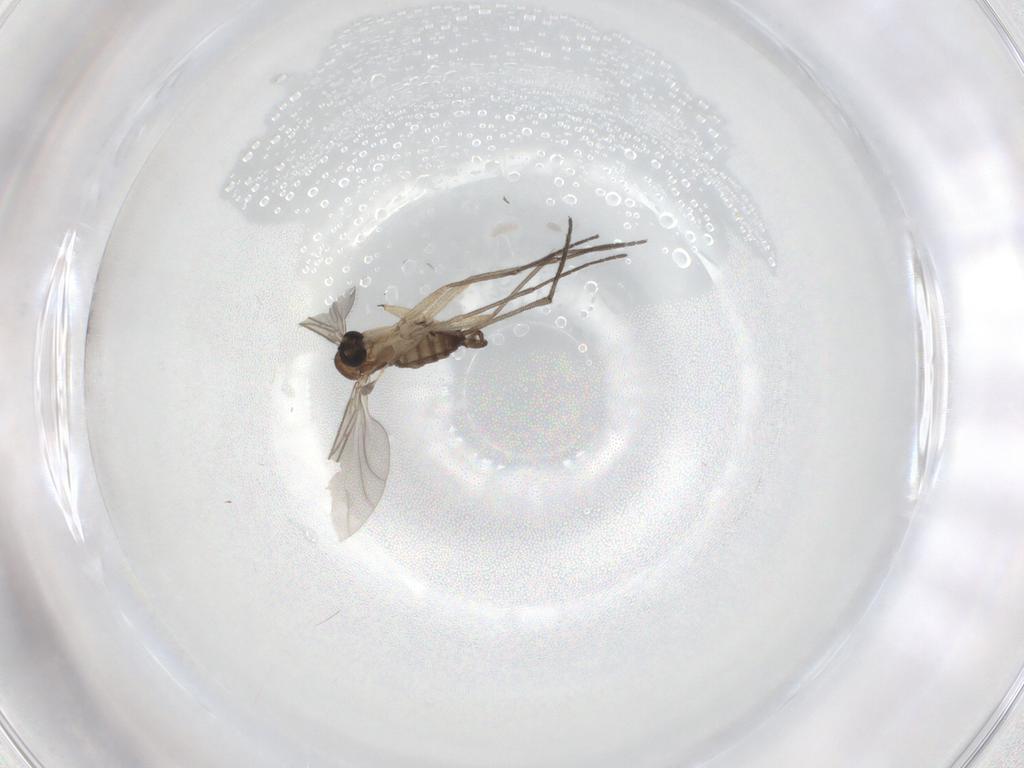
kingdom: Animalia
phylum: Arthropoda
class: Insecta
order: Diptera
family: Sciaridae
